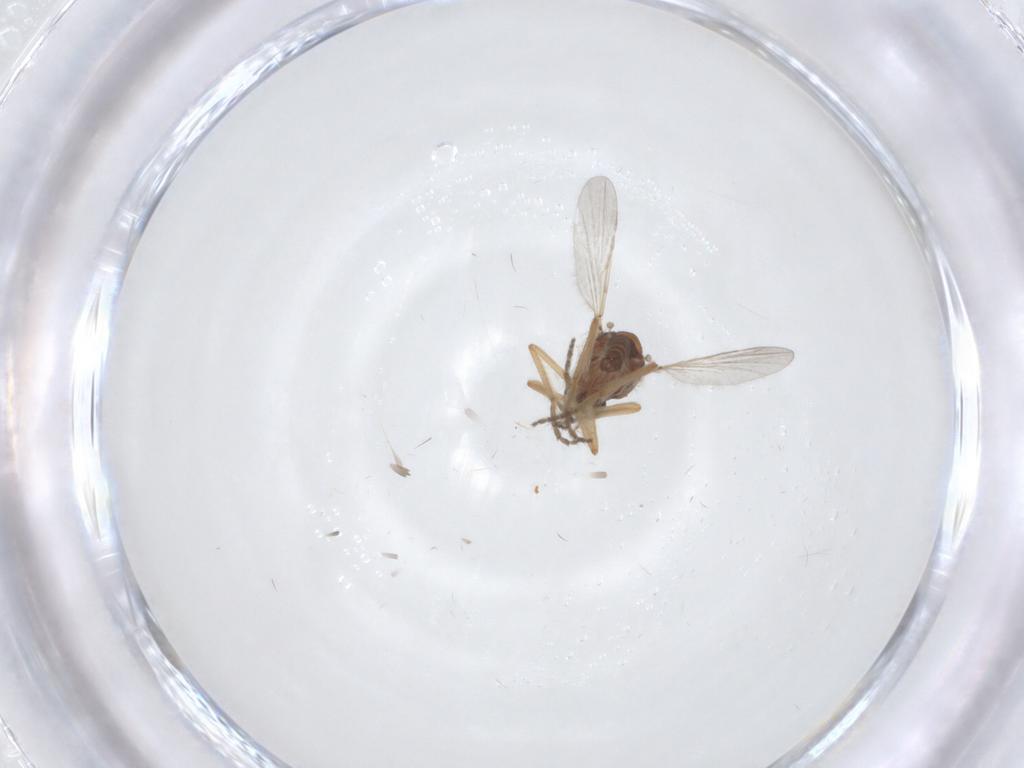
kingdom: Animalia
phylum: Arthropoda
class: Insecta
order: Diptera
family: Ceratopogonidae
